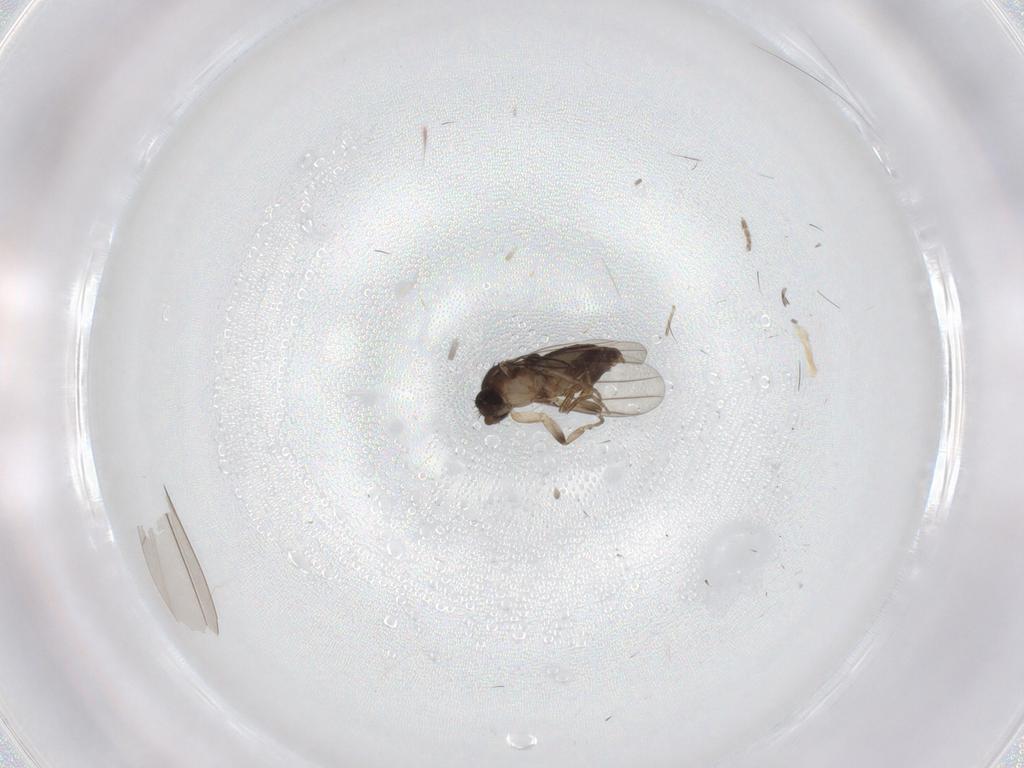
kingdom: Animalia
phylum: Arthropoda
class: Insecta
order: Diptera
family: Phoridae
